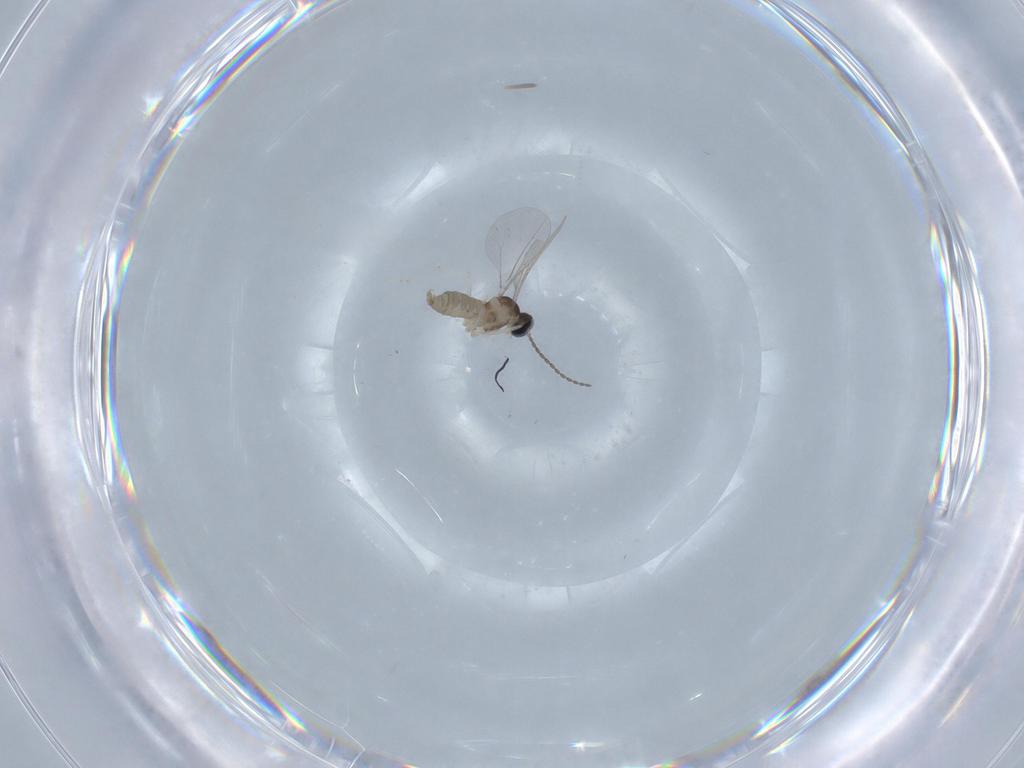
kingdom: Animalia
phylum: Arthropoda
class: Insecta
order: Diptera
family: Cecidomyiidae
